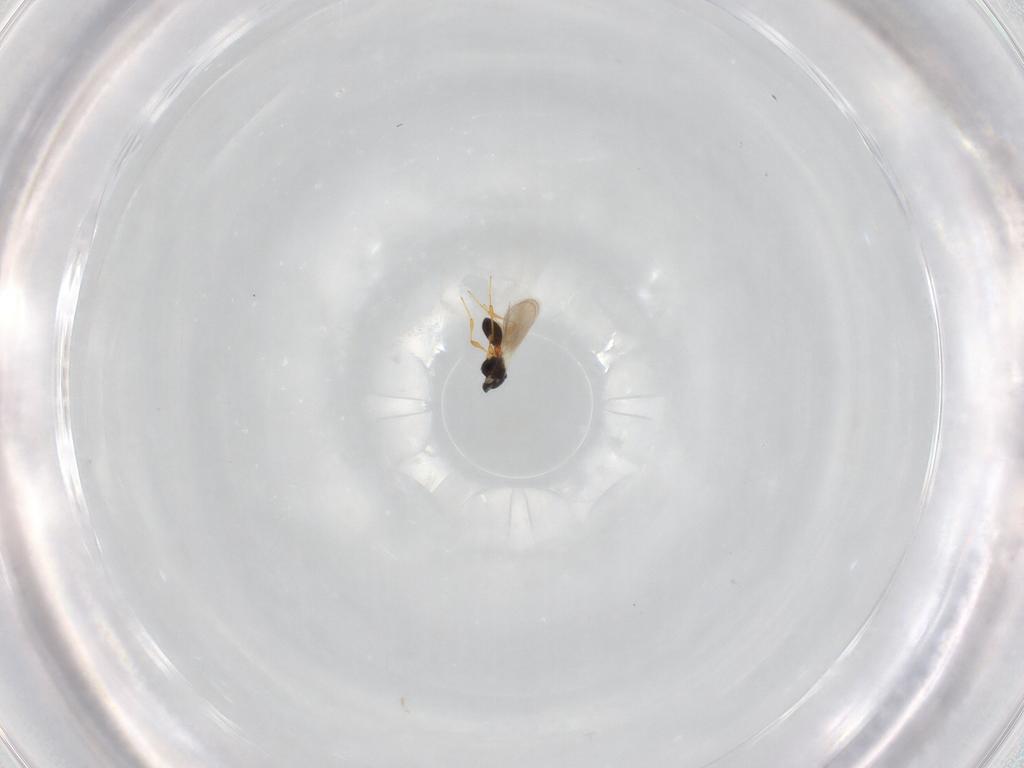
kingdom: Animalia
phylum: Arthropoda
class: Insecta
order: Hymenoptera
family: Platygastridae
